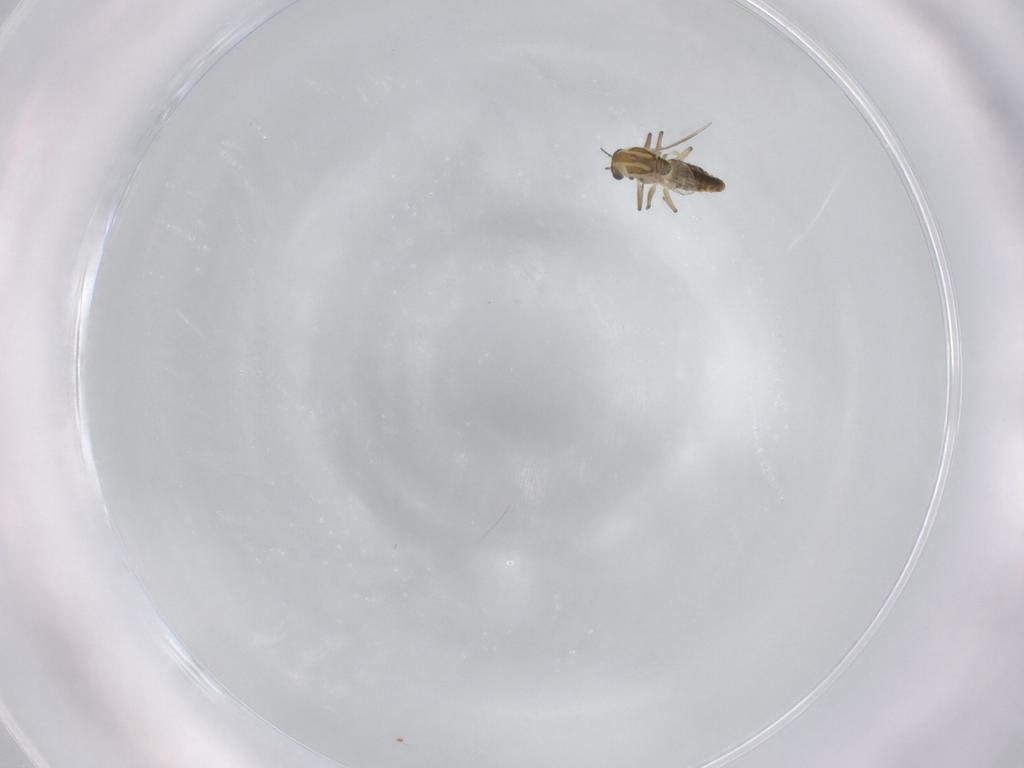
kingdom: Animalia
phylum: Arthropoda
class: Insecta
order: Diptera
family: Chironomidae
